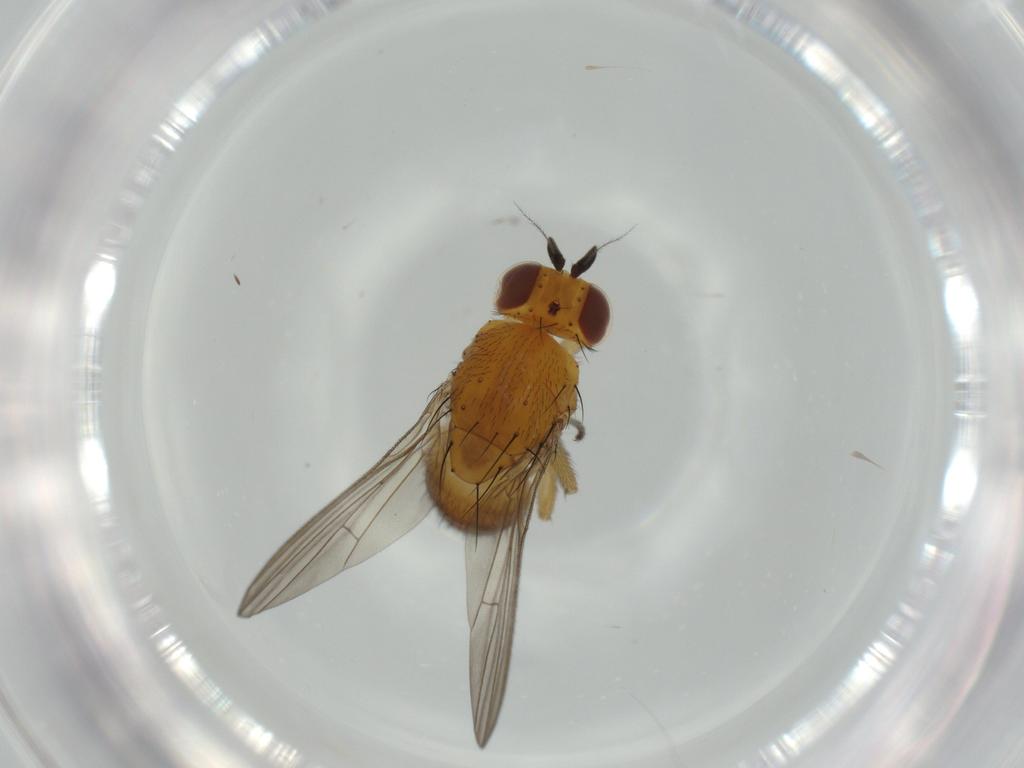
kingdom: Animalia
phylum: Arthropoda
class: Insecta
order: Diptera
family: Lauxaniidae
